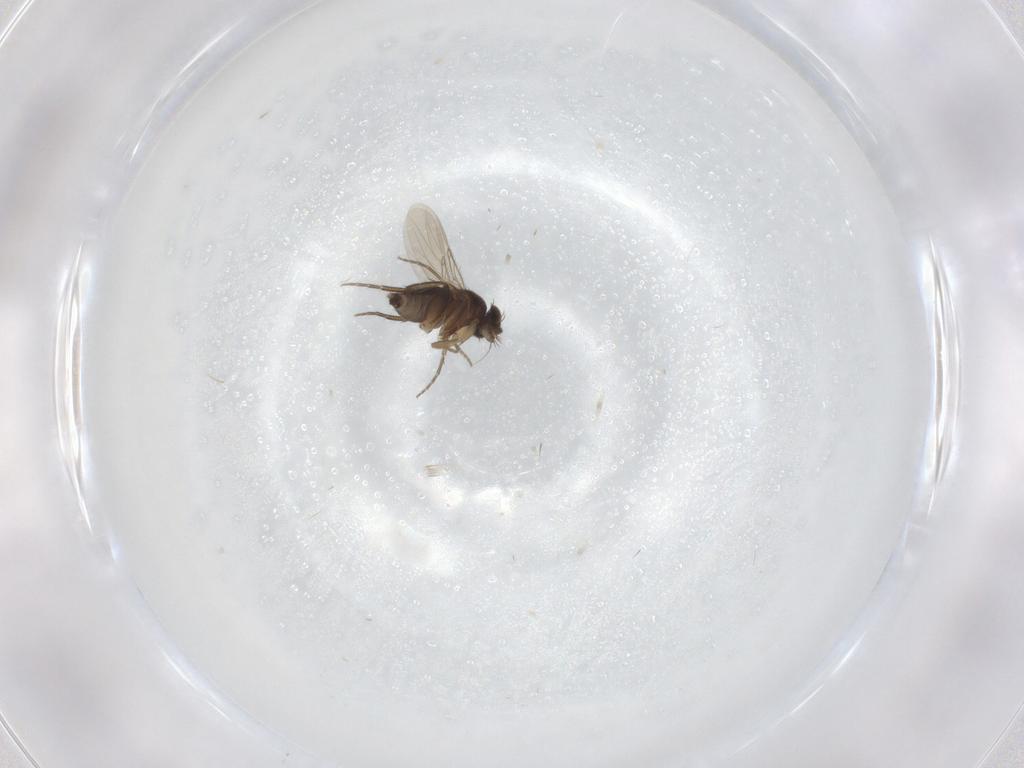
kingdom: Animalia
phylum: Arthropoda
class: Insecta
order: Diptera
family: Phoridae
